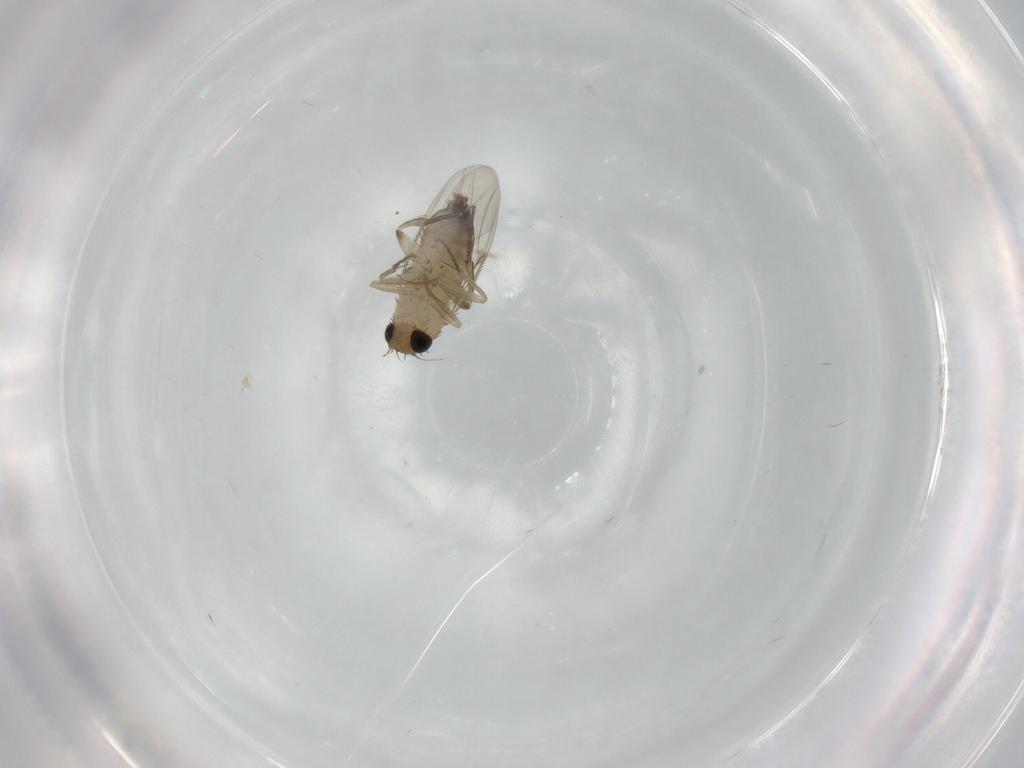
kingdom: Animalia
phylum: Arthropoda
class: Insecta
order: Diptera
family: Phoridae
